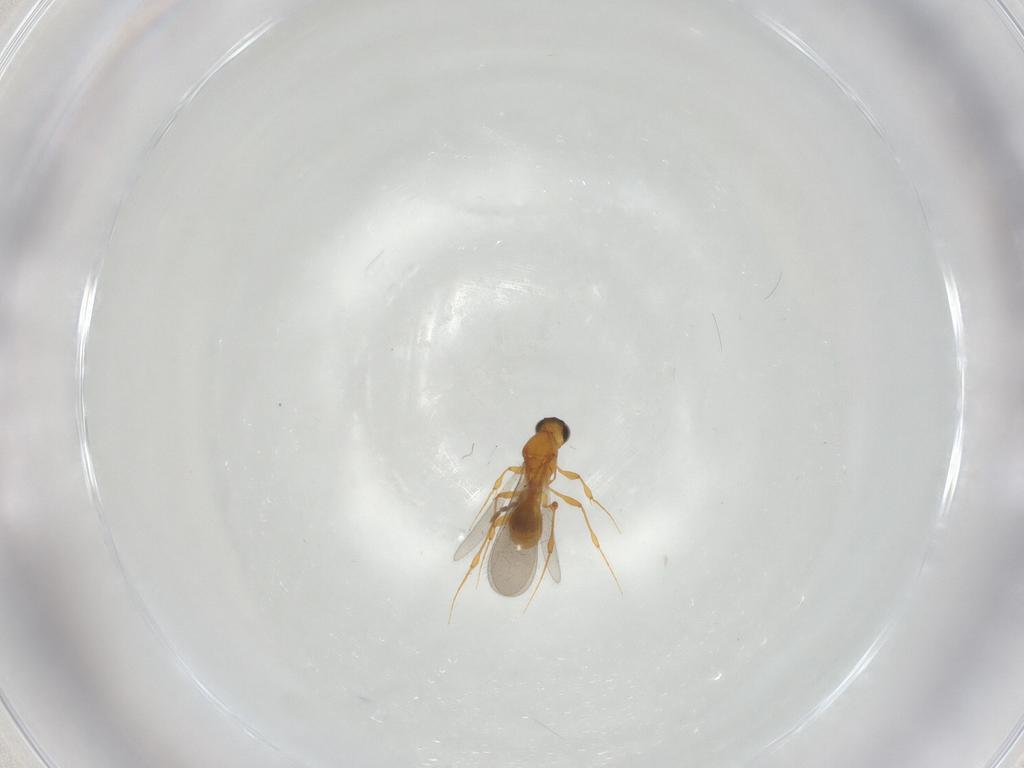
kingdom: Animalia
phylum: Arthropoda
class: Insecta
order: Hymenoptera
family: Platygastridae
